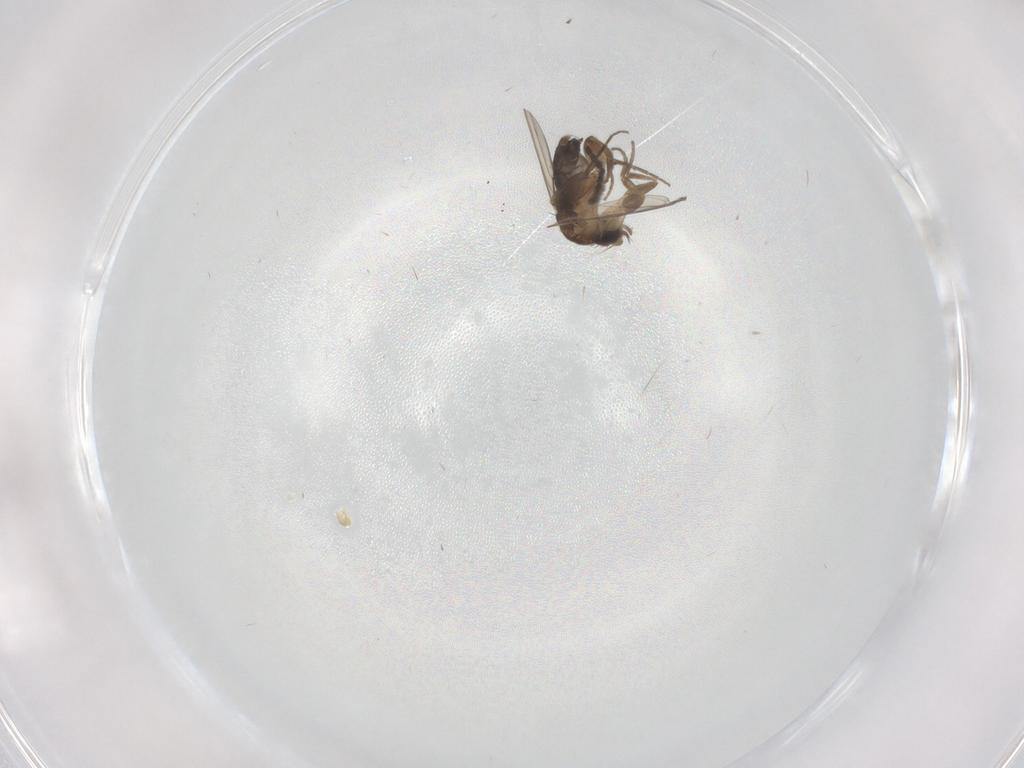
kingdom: Animalia
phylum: Arthropoda
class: Insecta
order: Diptera
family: Sciaridae
